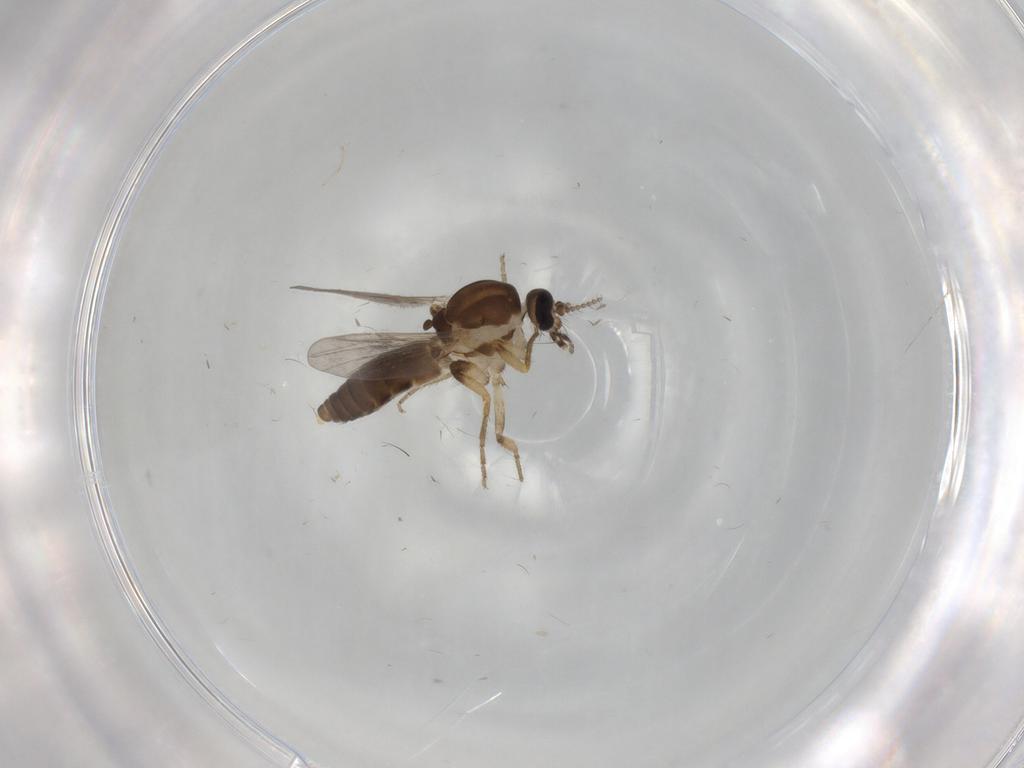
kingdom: Animalia
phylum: Arthropoda
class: Insecta
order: Diptera
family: Ceratopogonidae
